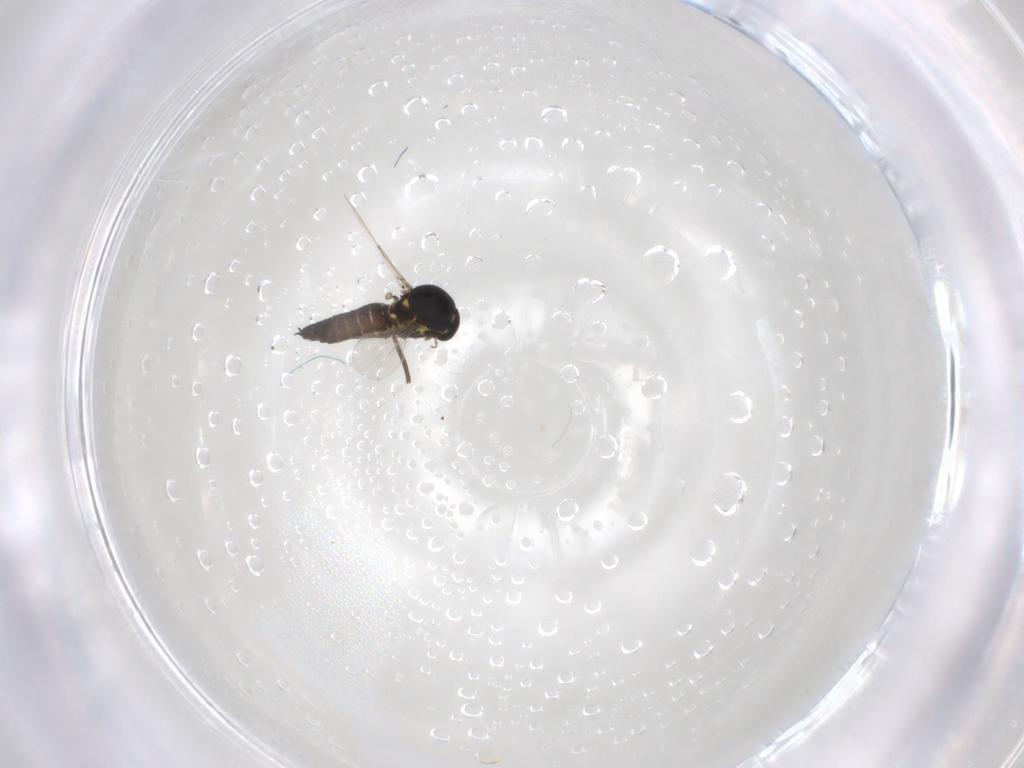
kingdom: Animalia
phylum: Arthropoda
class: Insecta
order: Diptera
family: Ceratopogonidae
